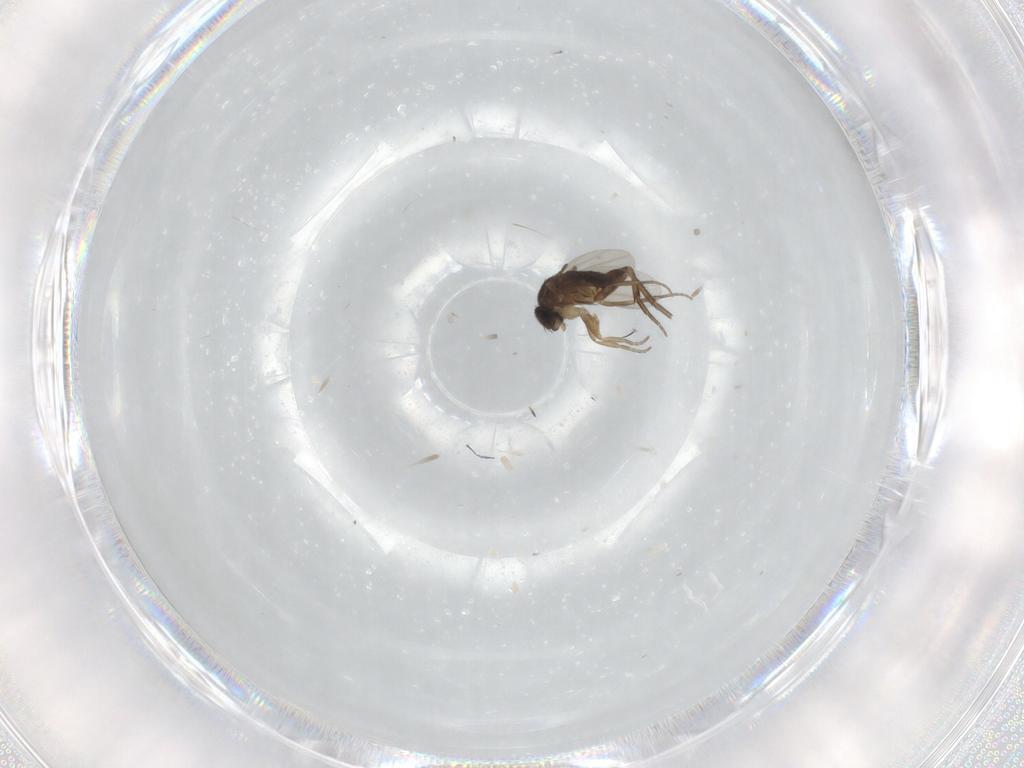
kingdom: Animalia
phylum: Arthropoda
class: Insecta
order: Diptera
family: Phoridae
